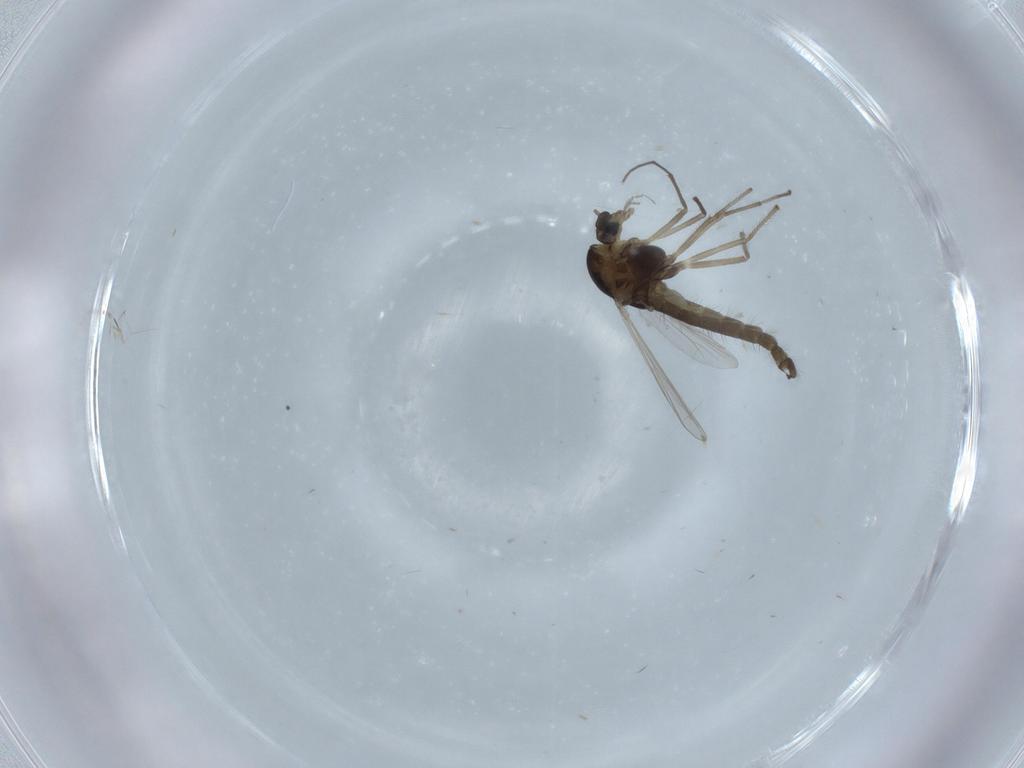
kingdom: Animalia
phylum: Arthropoda
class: Insecta
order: Diptera
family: Chironomidae
